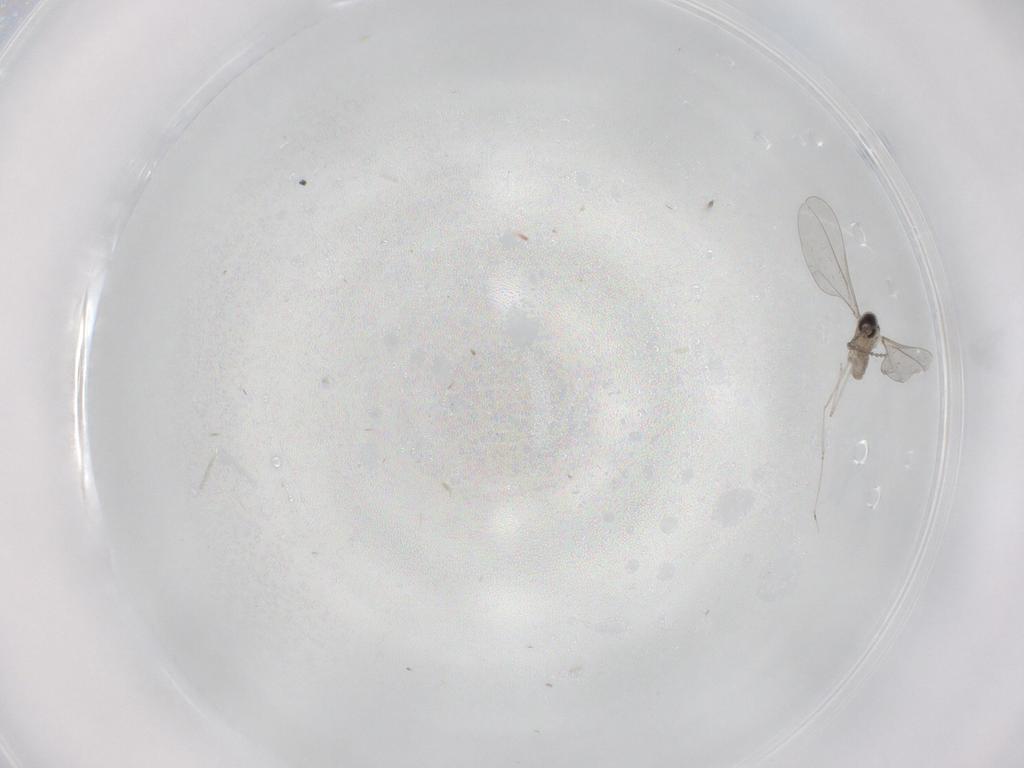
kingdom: Animalia
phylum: Arthropoda
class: Insecta
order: Diptera
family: Cecidomyiidae
